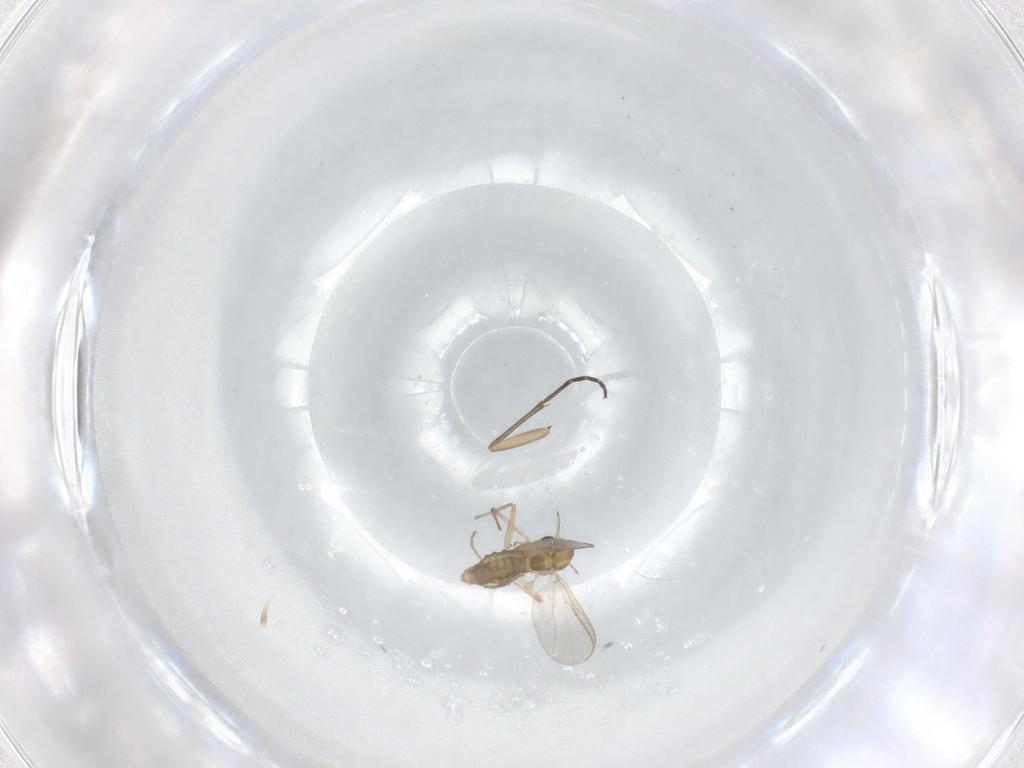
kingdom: Animalia
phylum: Arthropoda
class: Insecta
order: Diptera
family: Sciaridae
